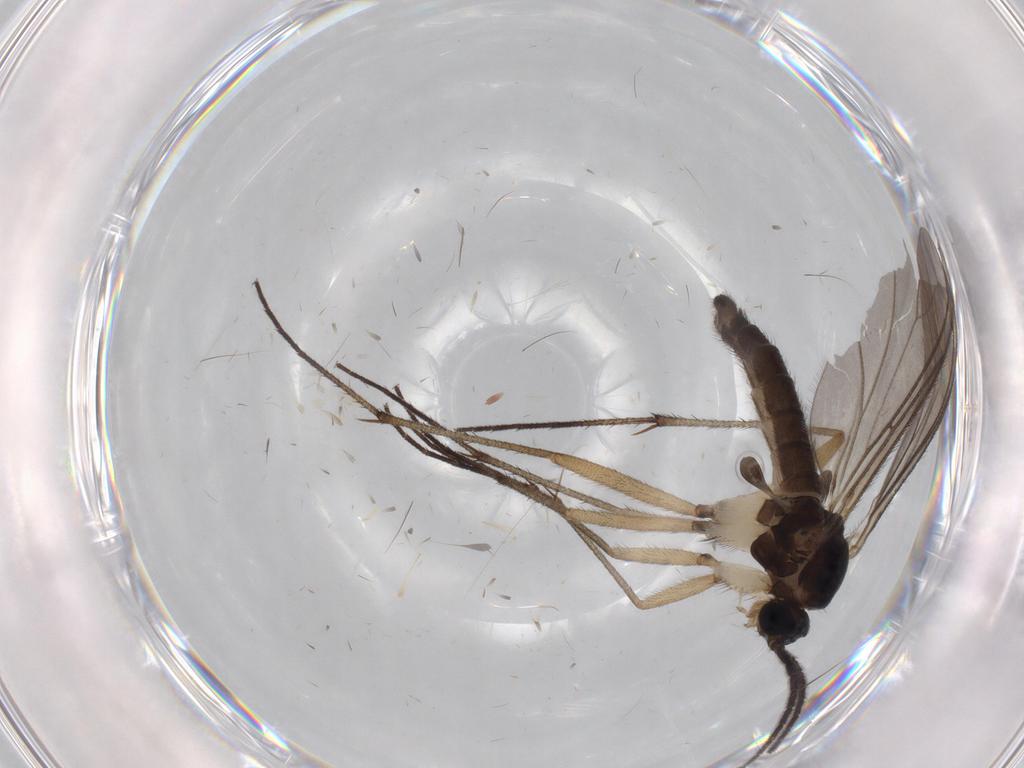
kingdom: Animalia
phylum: Arthropoda
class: Insecta
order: Diptera
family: Sciaridae
